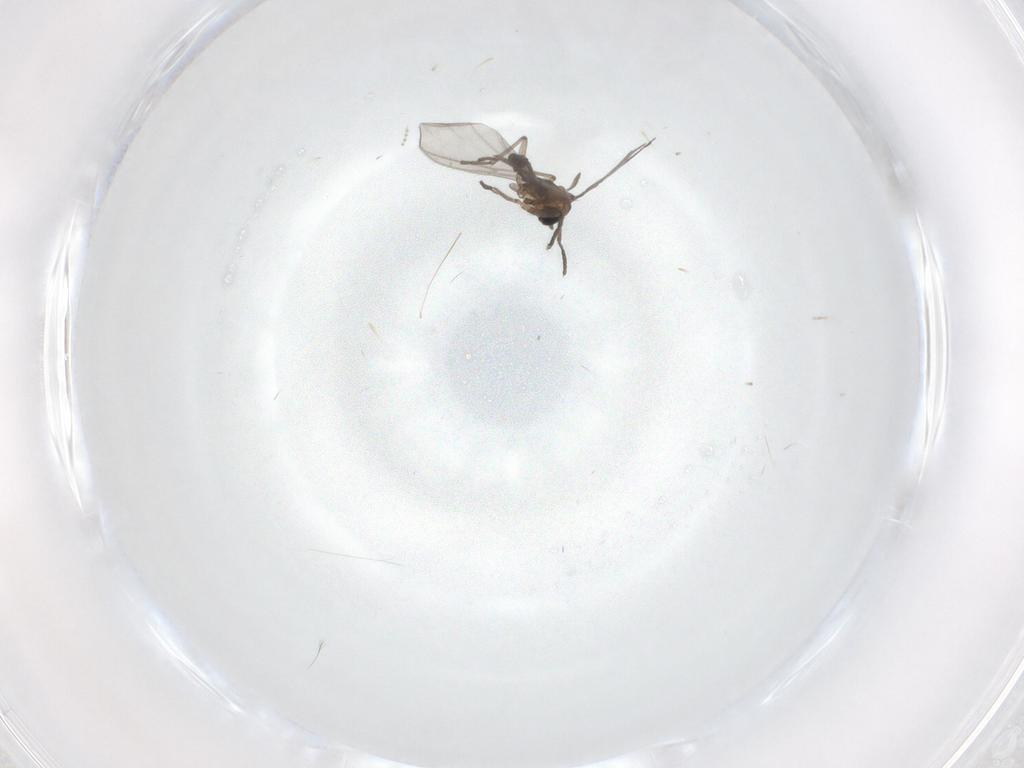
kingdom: Animalia
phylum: Arthropoda
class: Insecta
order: Diptera
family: Sciaridae
